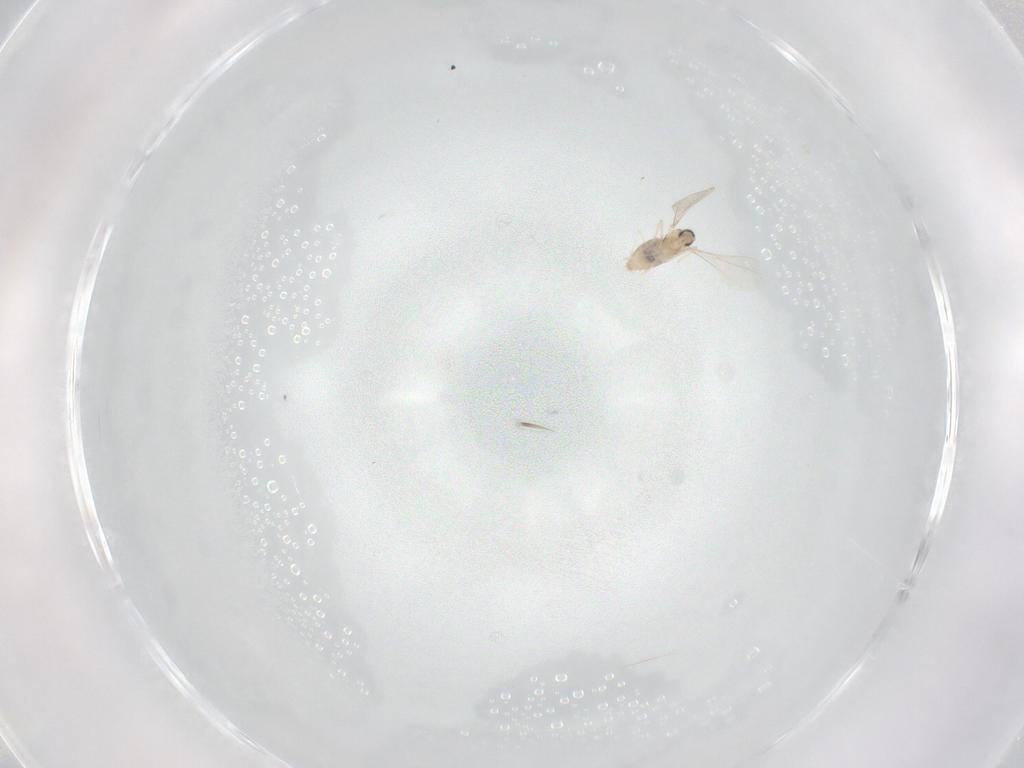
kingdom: Animalia
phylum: Arthropoda
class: Insecta
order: Diptera
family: Cecidomyiidae
